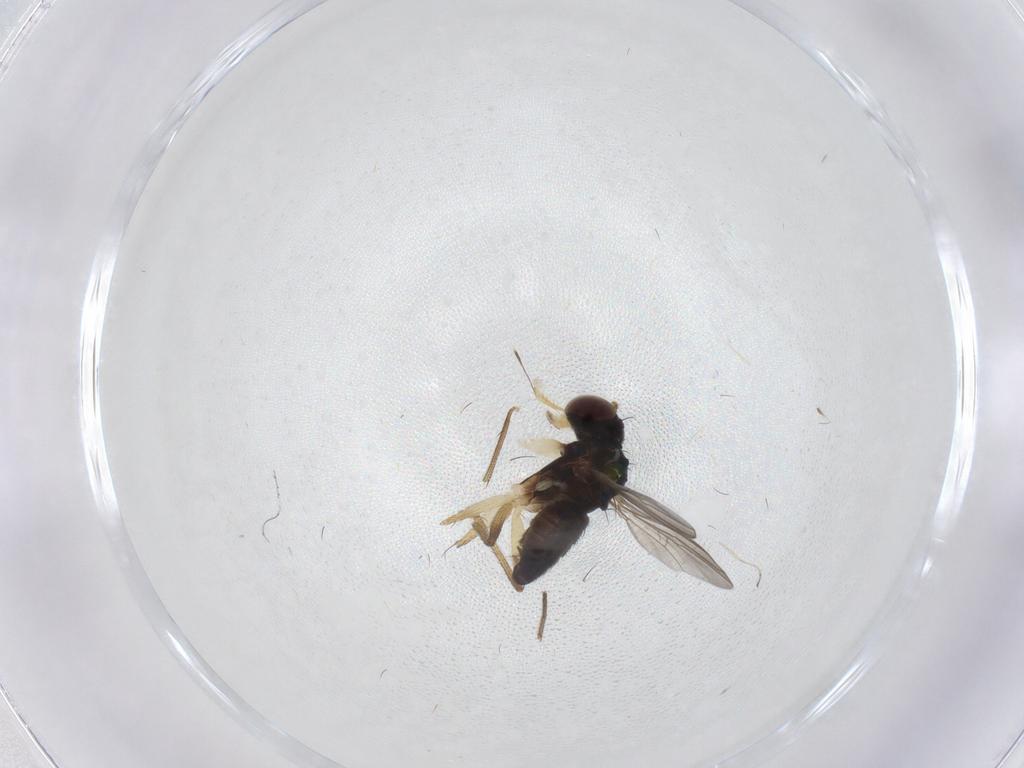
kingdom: Animalia
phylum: Arthropoda
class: Insecta
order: Diptera
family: Dolichopodidae
